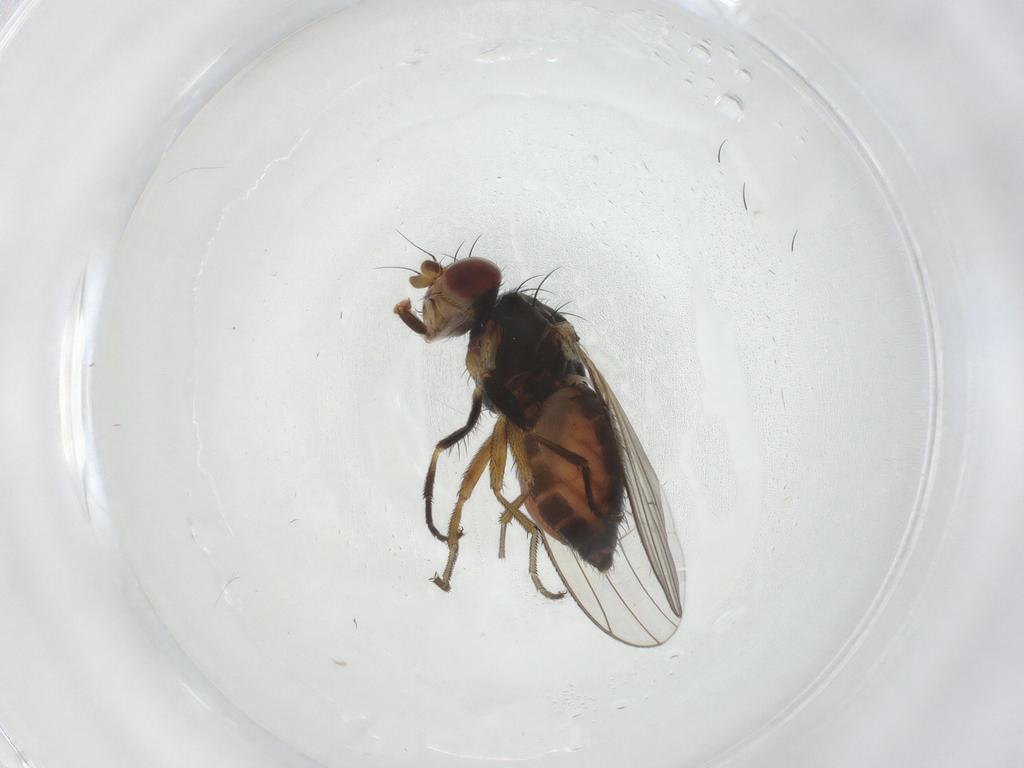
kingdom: Animalia
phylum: Arthropoda
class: Insecta
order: Diptera
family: Heleomyzidae
